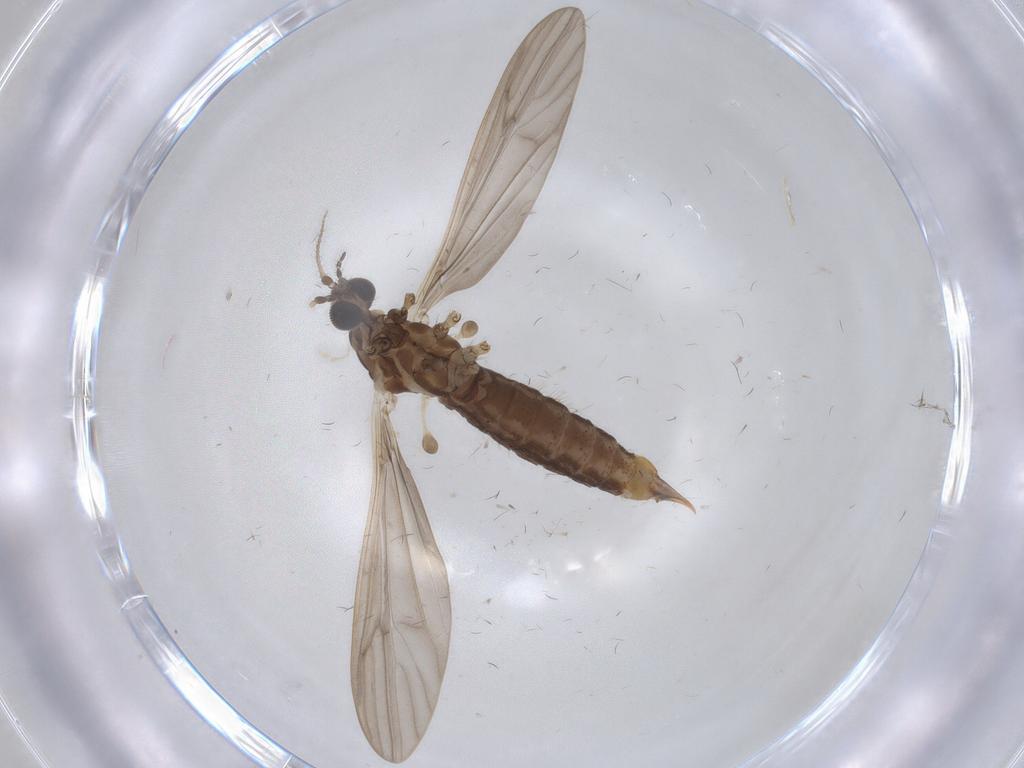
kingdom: Animalia
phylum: Arthropoda
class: Insecta
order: Diptera
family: Limoniidae
